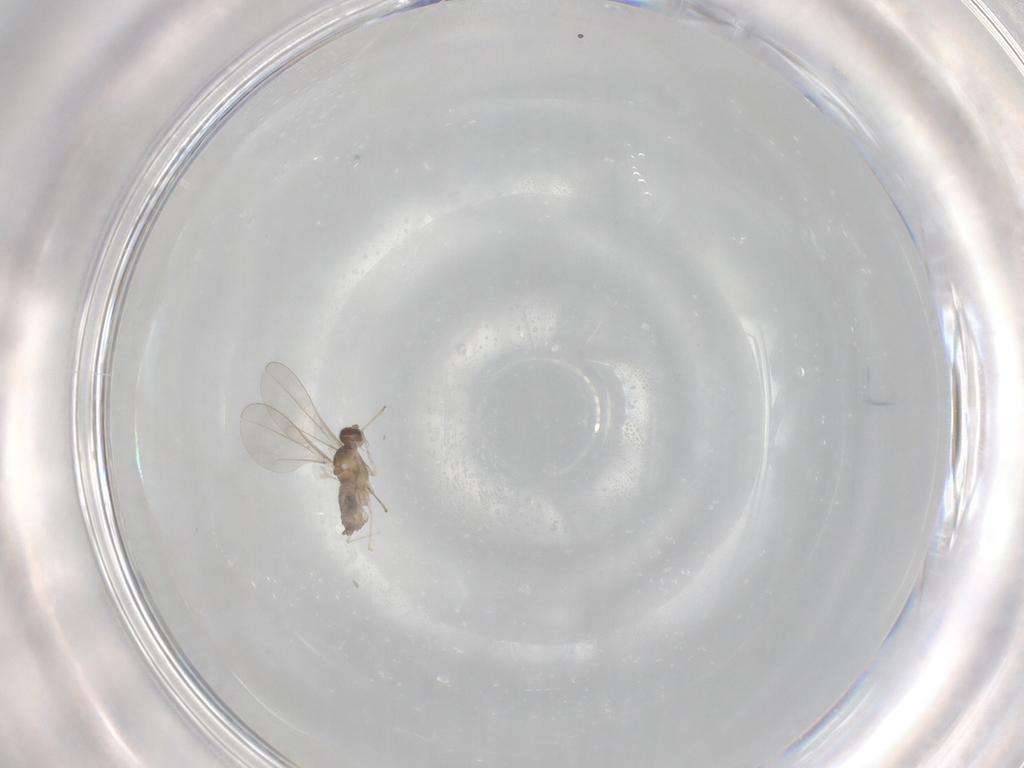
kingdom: Animalia
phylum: Arthropoda
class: Insecta
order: Diptera
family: Cecidomyiidae
